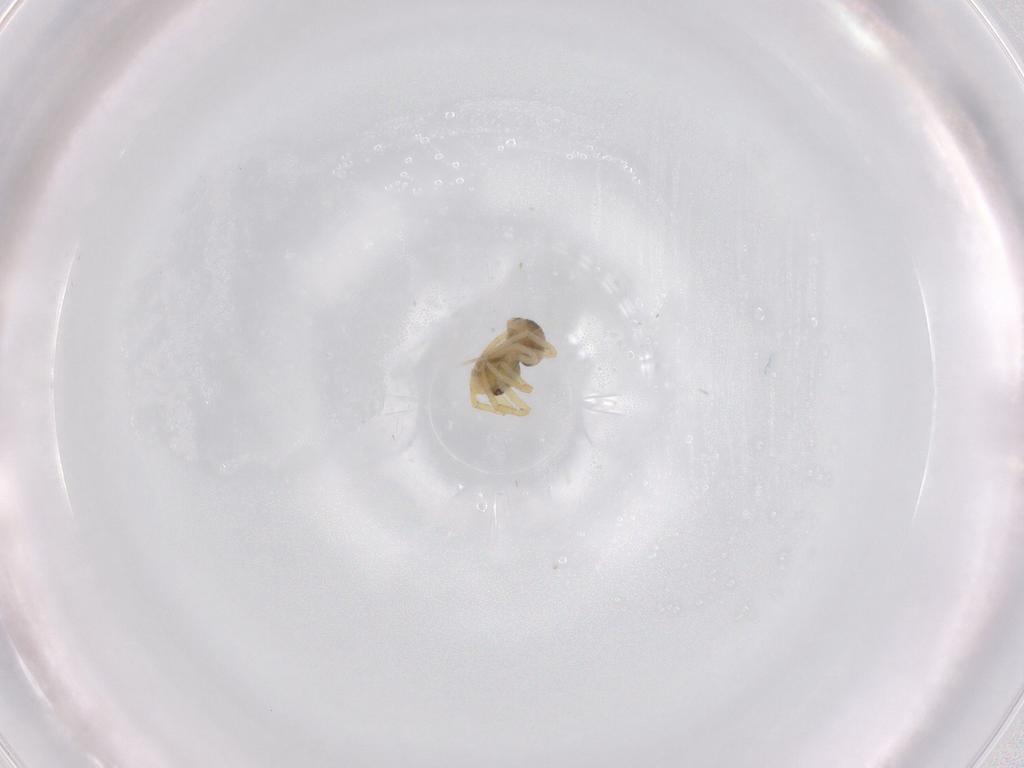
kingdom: Animalia
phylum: Arthropoda
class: Arachnida
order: Araneae
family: Theridiidae
